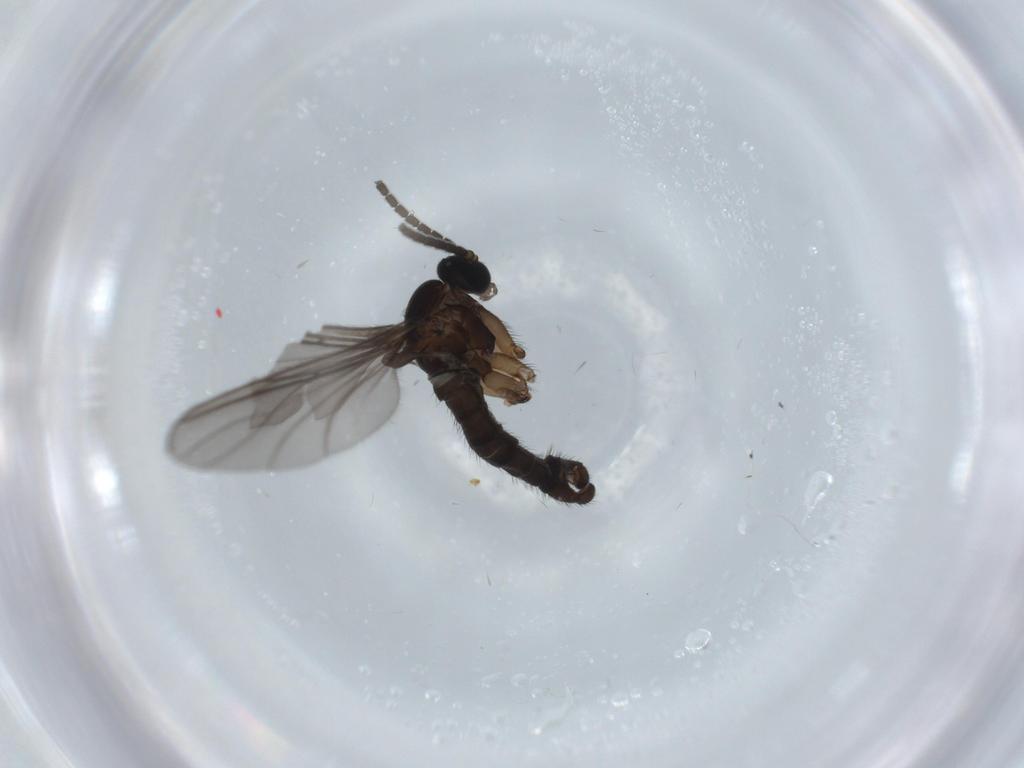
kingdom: Animalia
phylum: Arthropoda
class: Insecta
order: Diptera
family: Sciaridae
